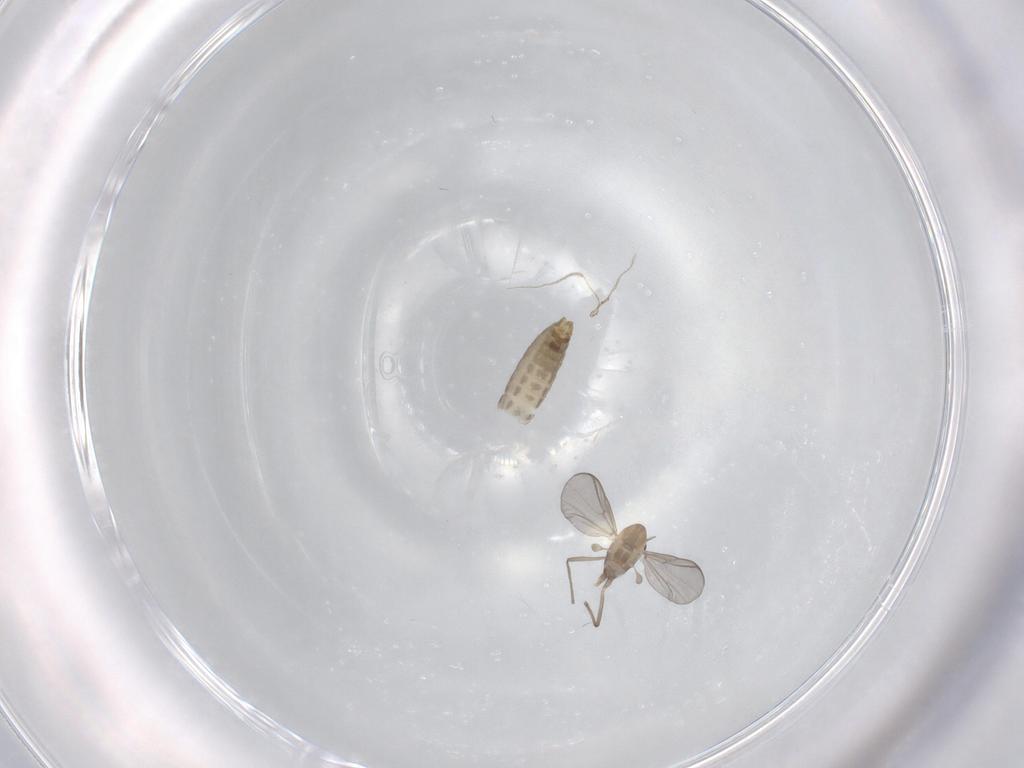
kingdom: Animalia
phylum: Arthropoda
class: Insecta
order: Diptera
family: Chironomidae
